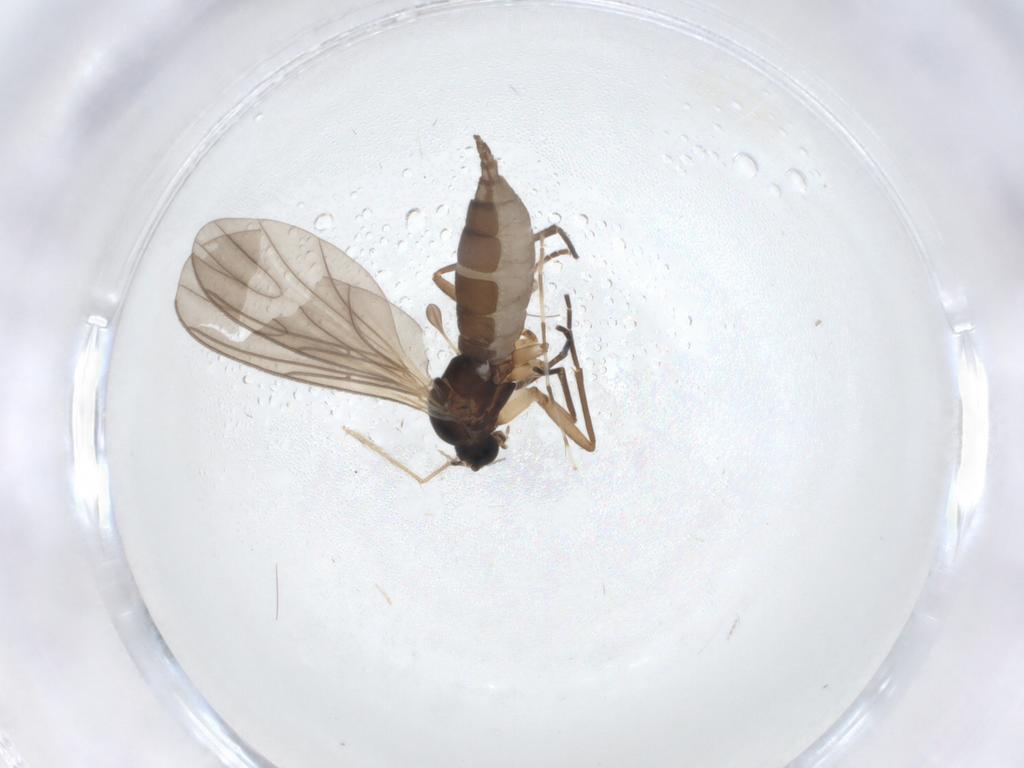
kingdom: Animalia
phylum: Arthropoda
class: Insecta
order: Diptera
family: Sciaridae
